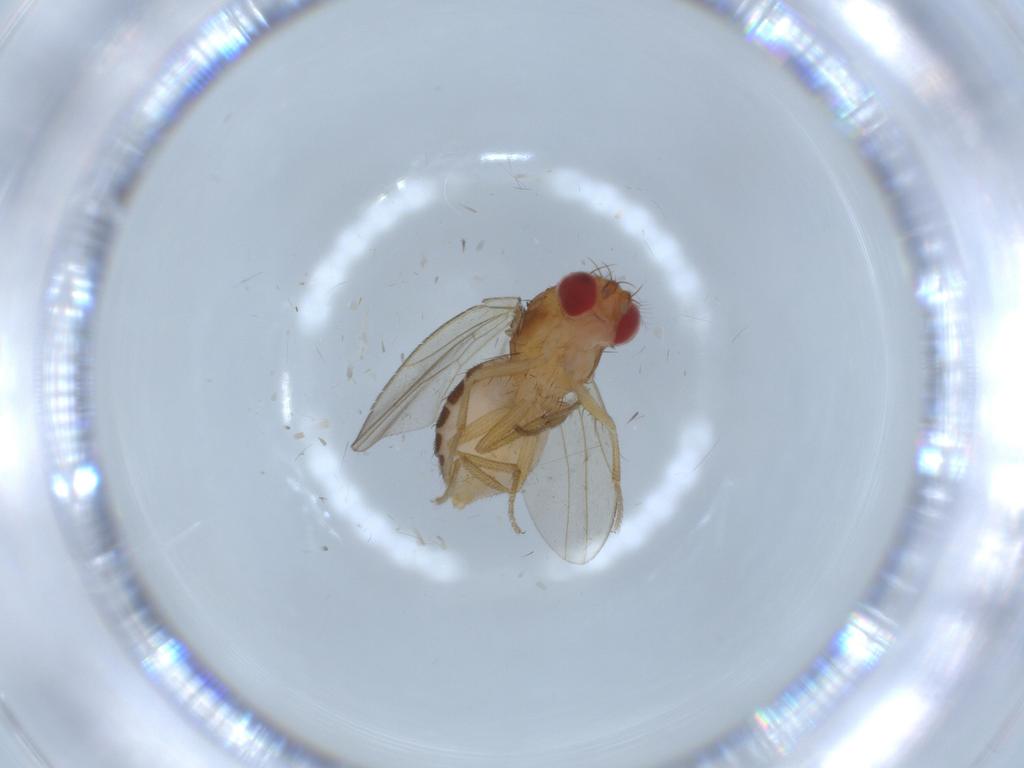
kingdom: Animalia
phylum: Arthropoda
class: Insecta
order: Diptera
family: Drosophilidae
